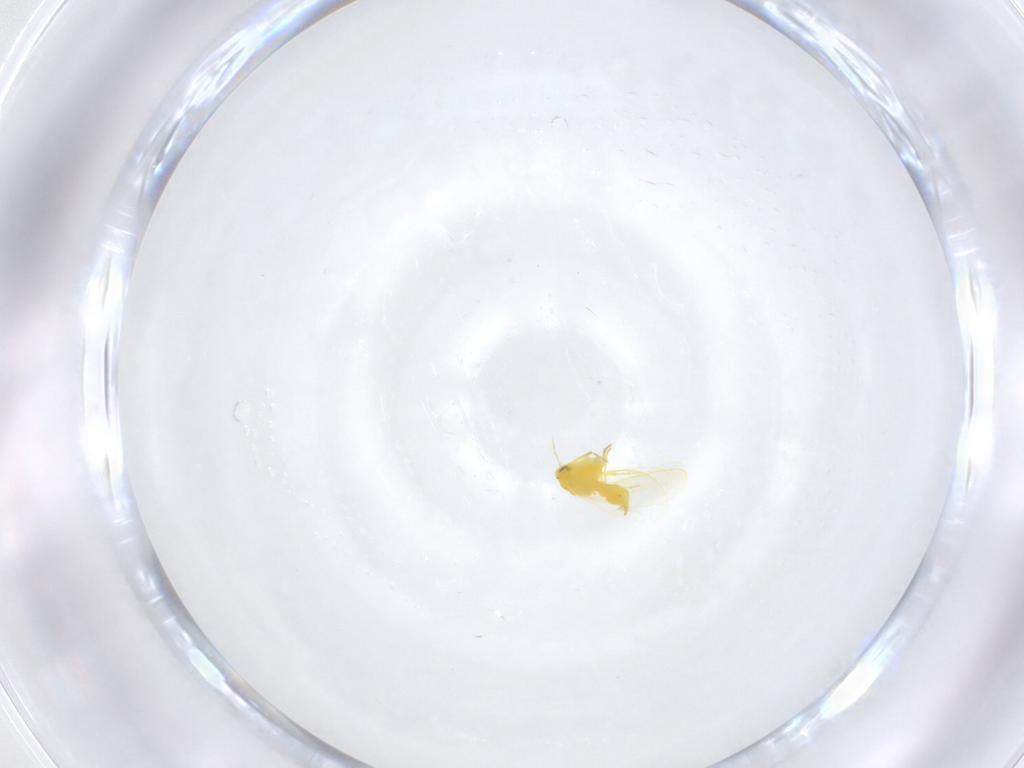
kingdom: Animalia
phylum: Arthropoda
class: Insecta
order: Hemiptera
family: Aleyrodidae
